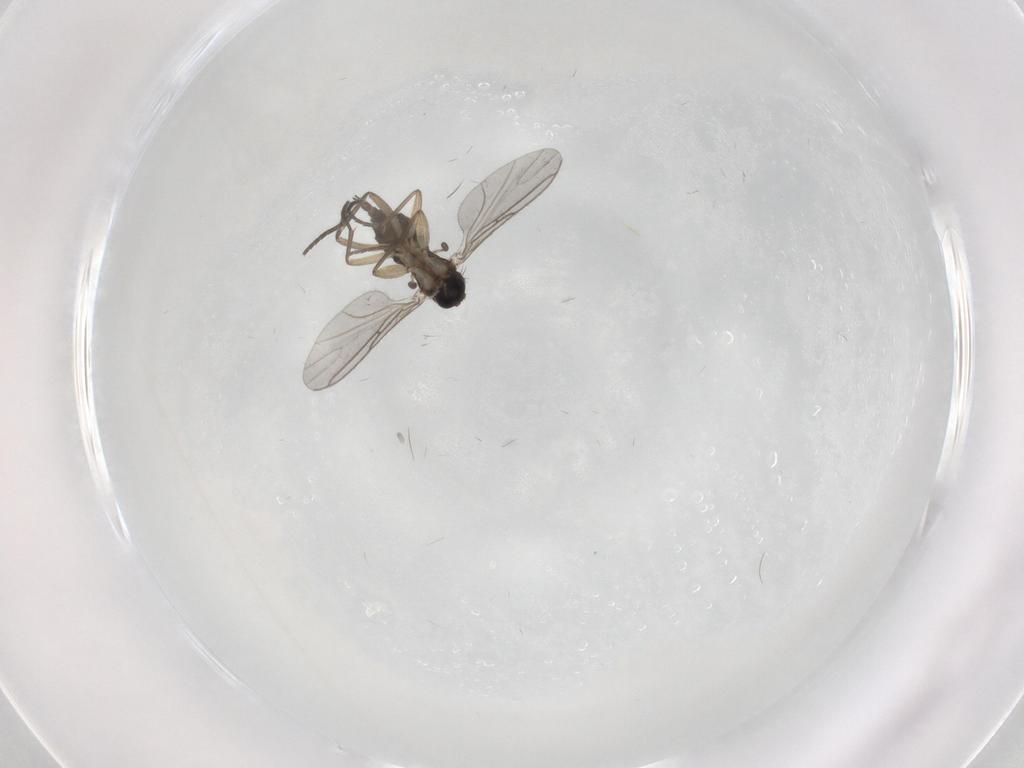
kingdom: Animalia
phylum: Arthropoda
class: Insecta
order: Diptera
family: Sciaridae
